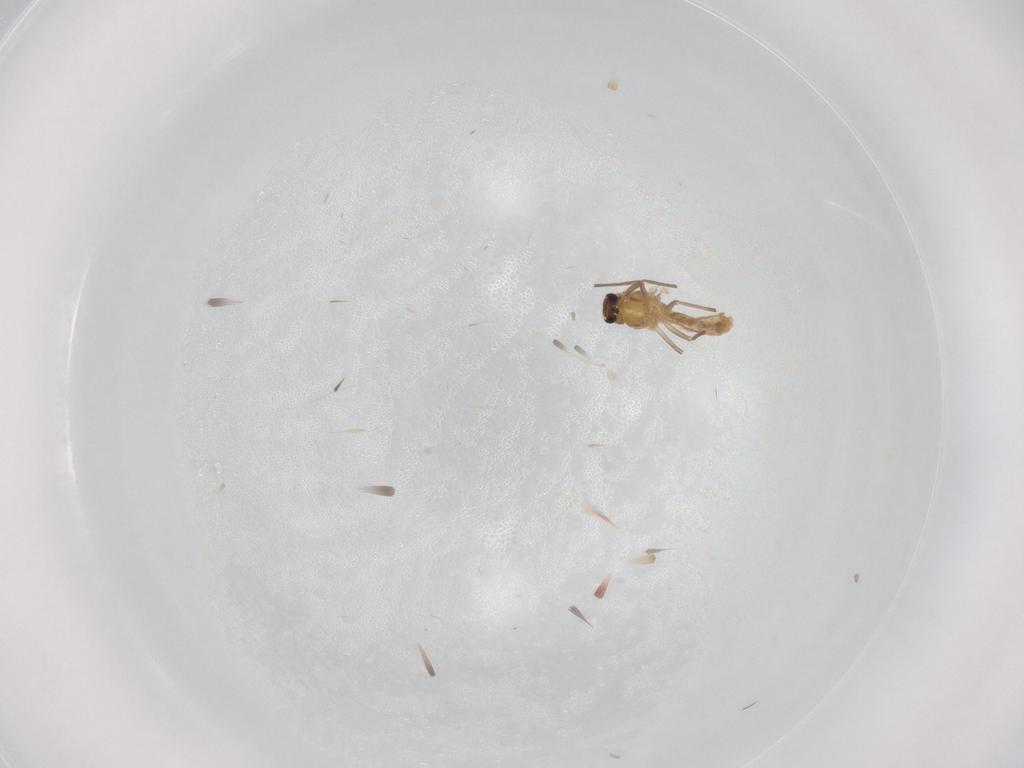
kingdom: Animalia
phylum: Arthropoda
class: Insecta
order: Diptera
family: Chironomidae
